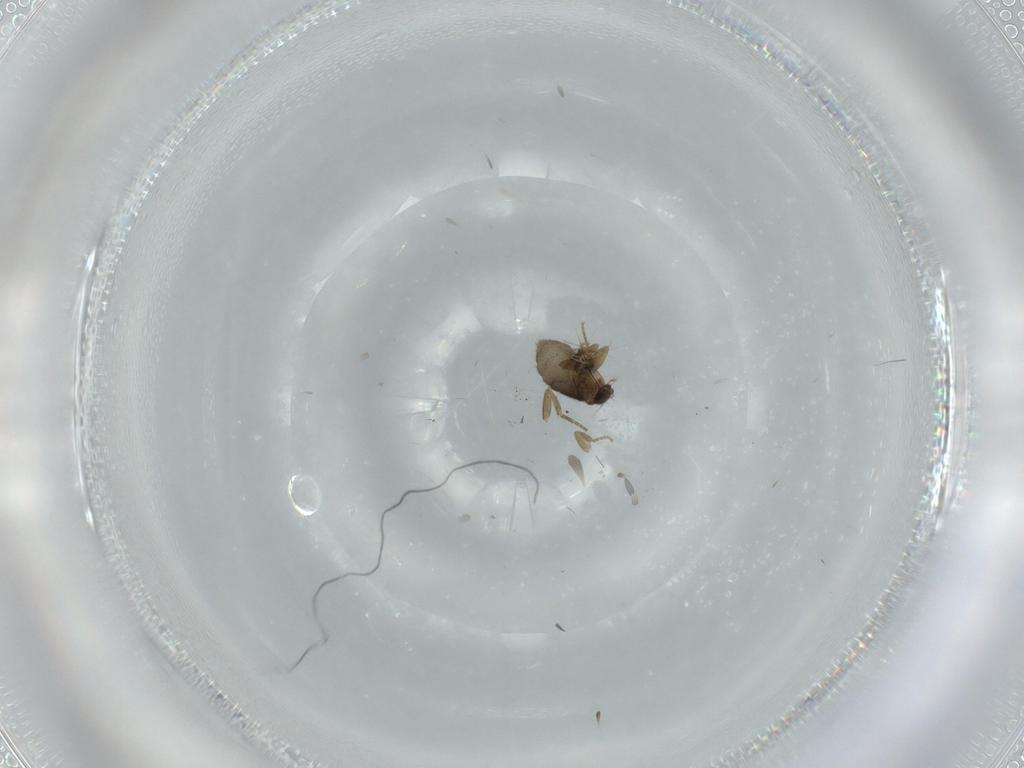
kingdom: Animalia
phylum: Arthropoda
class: Insecta
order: Diptera
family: Phoridae
